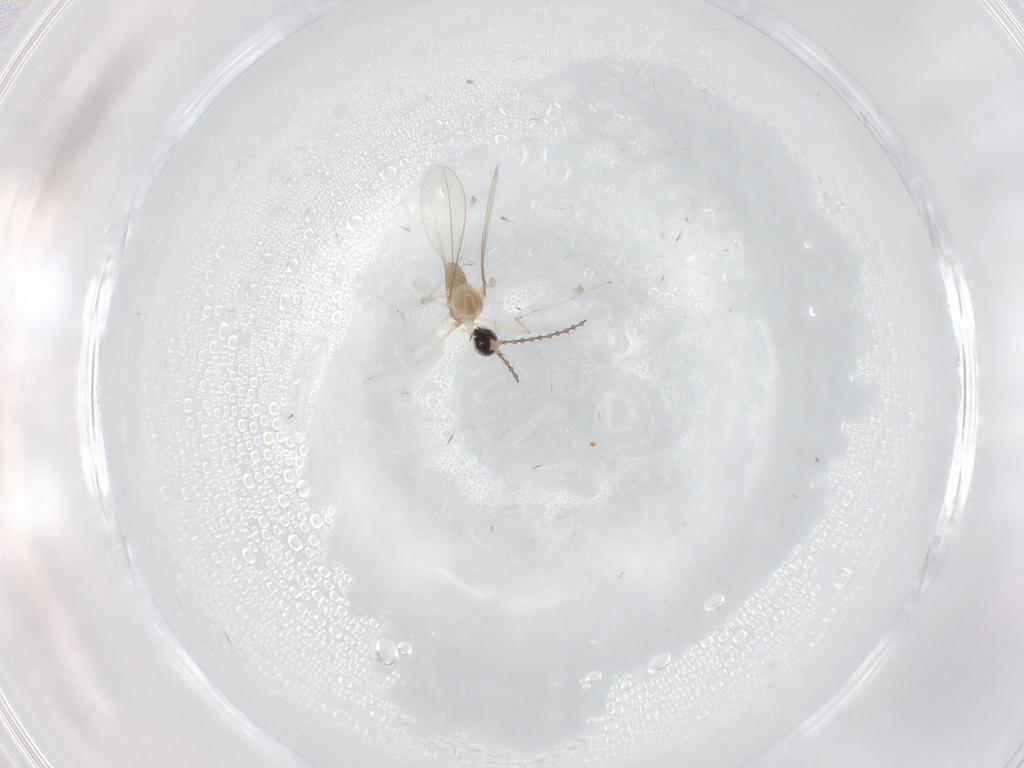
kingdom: Animalia
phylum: Arthropoda
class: Insecta
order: Diptera
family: Cecidomyiidae
